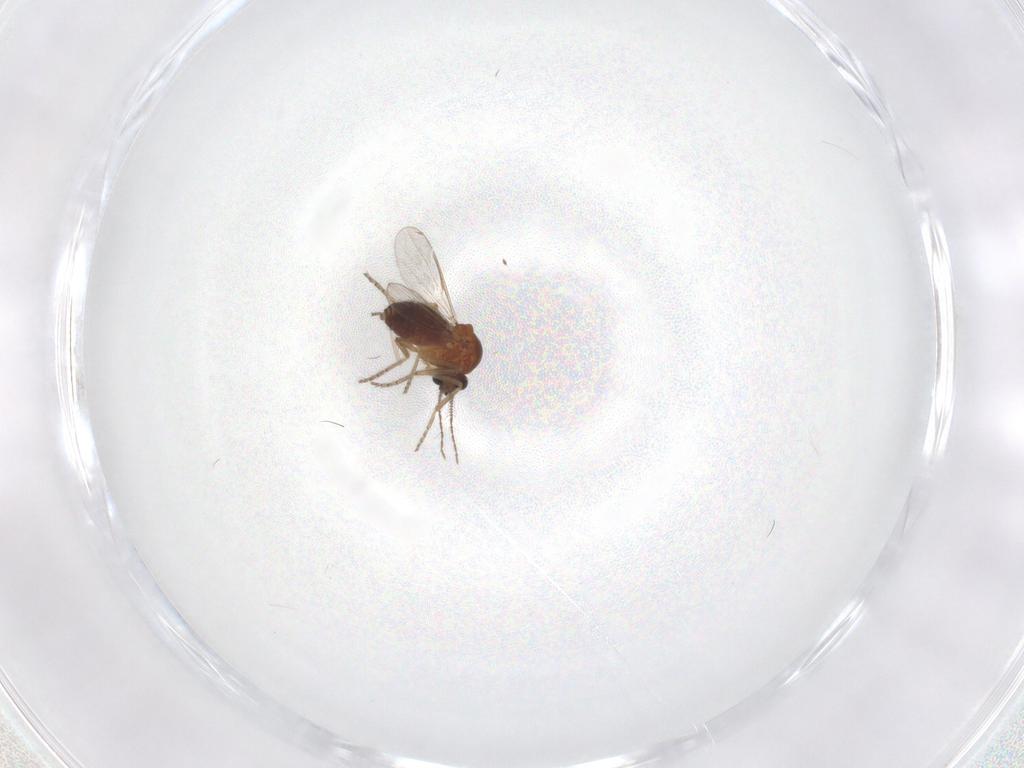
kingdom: Animalia
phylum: Arthropoda
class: Insecta
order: Diptera
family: Ceratopogonidae
